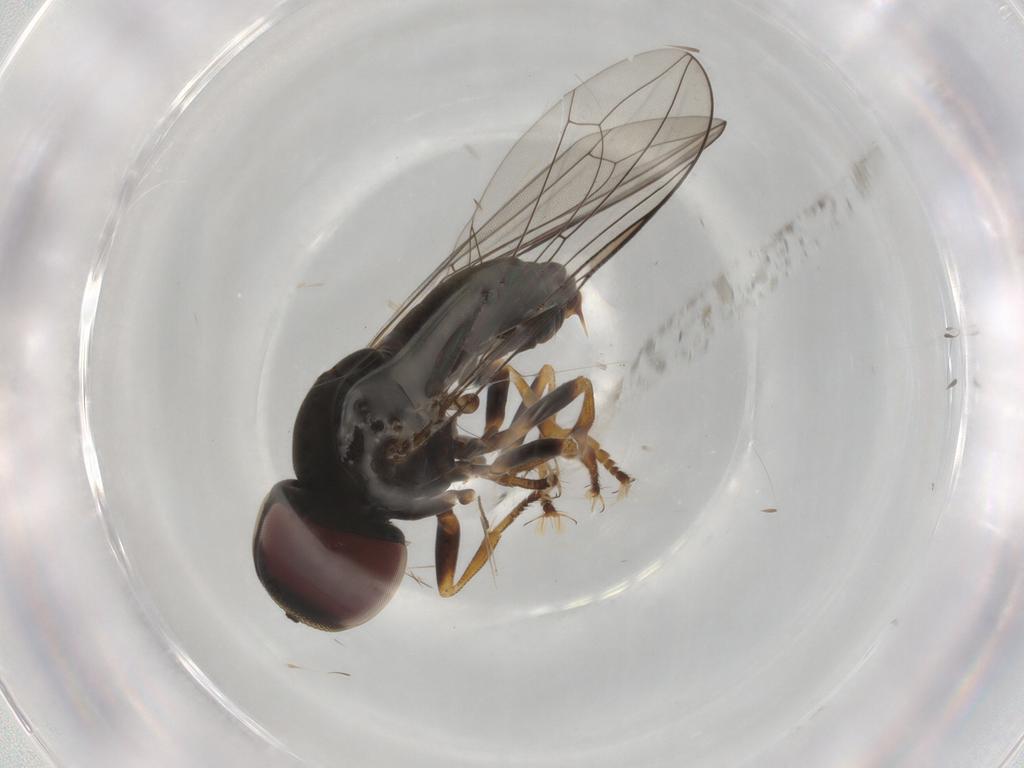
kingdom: Animalia
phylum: Arthropoda
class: Insecta
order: Diptera
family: Pipunculidae
